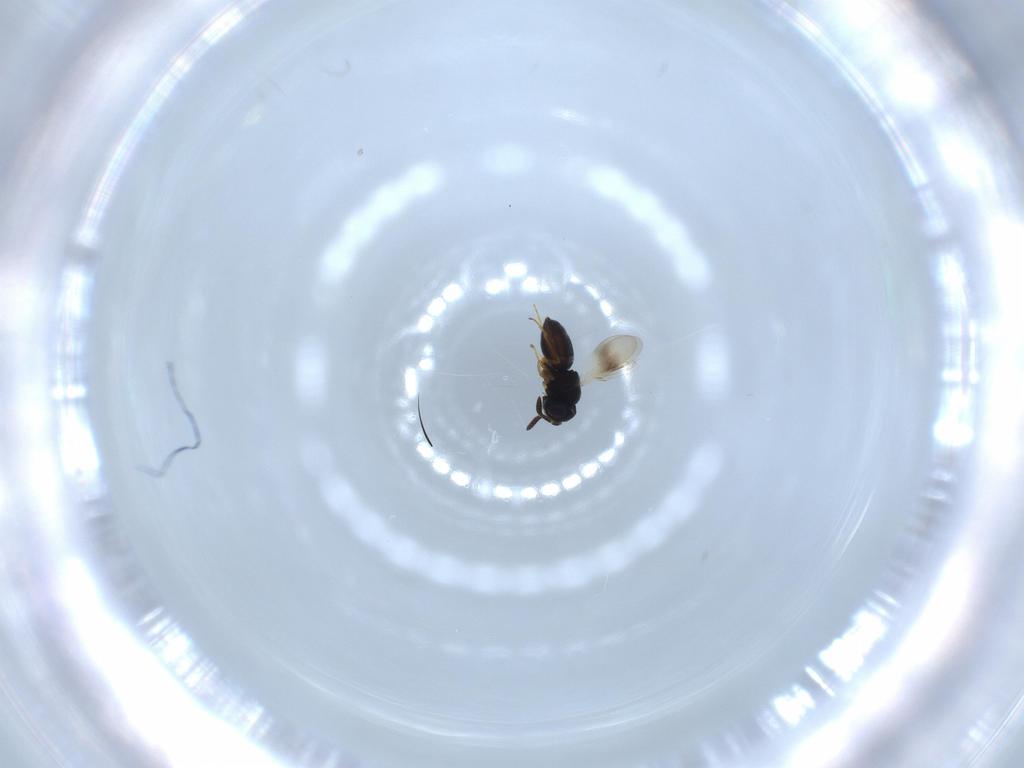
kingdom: Animalia
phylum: Arthropoda
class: Insecta
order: Hymenoptera
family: Scelionidae
